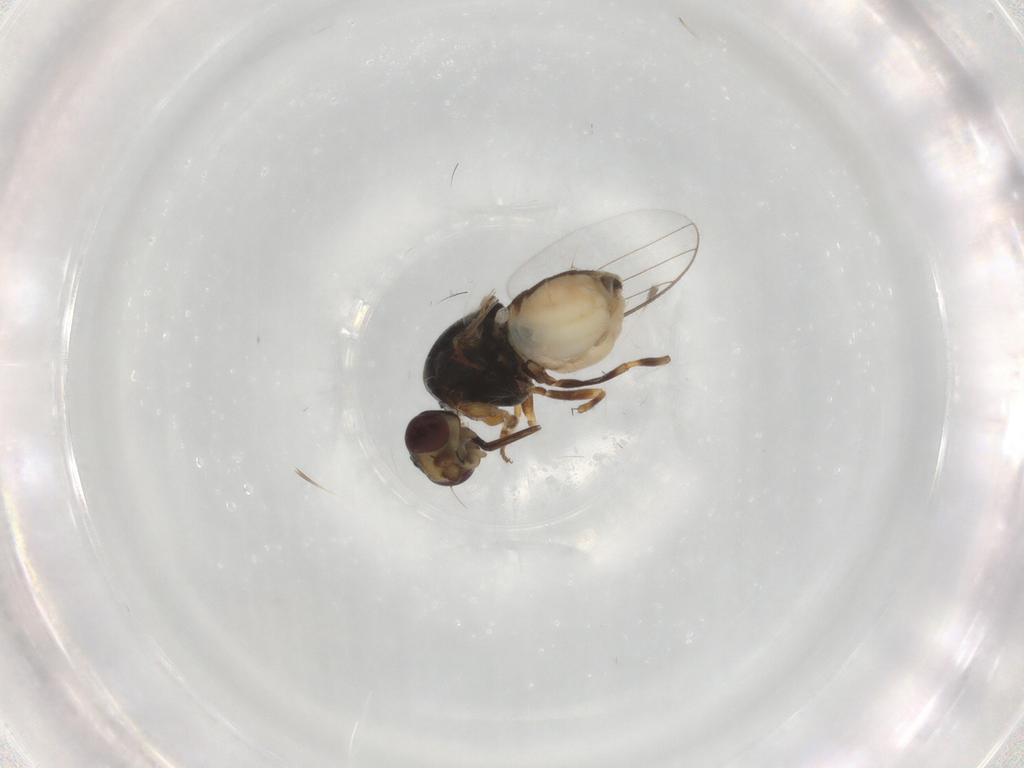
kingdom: Animalia
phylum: Arthropoda
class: Insecta
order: Diptera
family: Chloropidae
